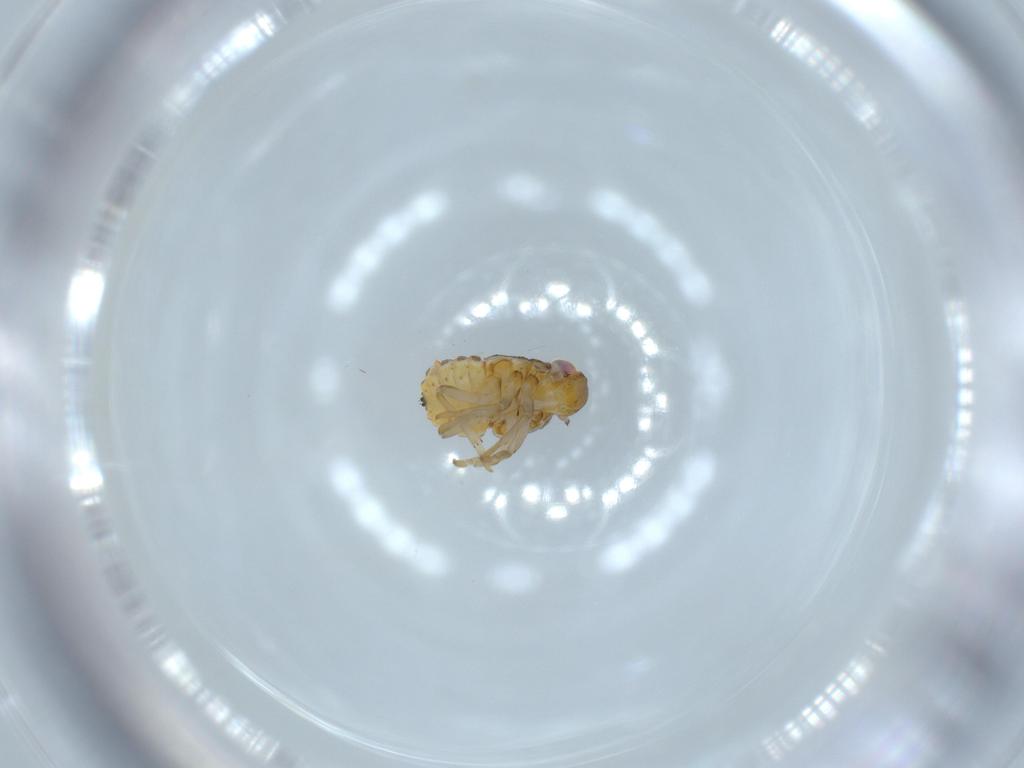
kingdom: Animalia
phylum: Arthropoda
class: Insecta
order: Hemiptera
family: Issidae
